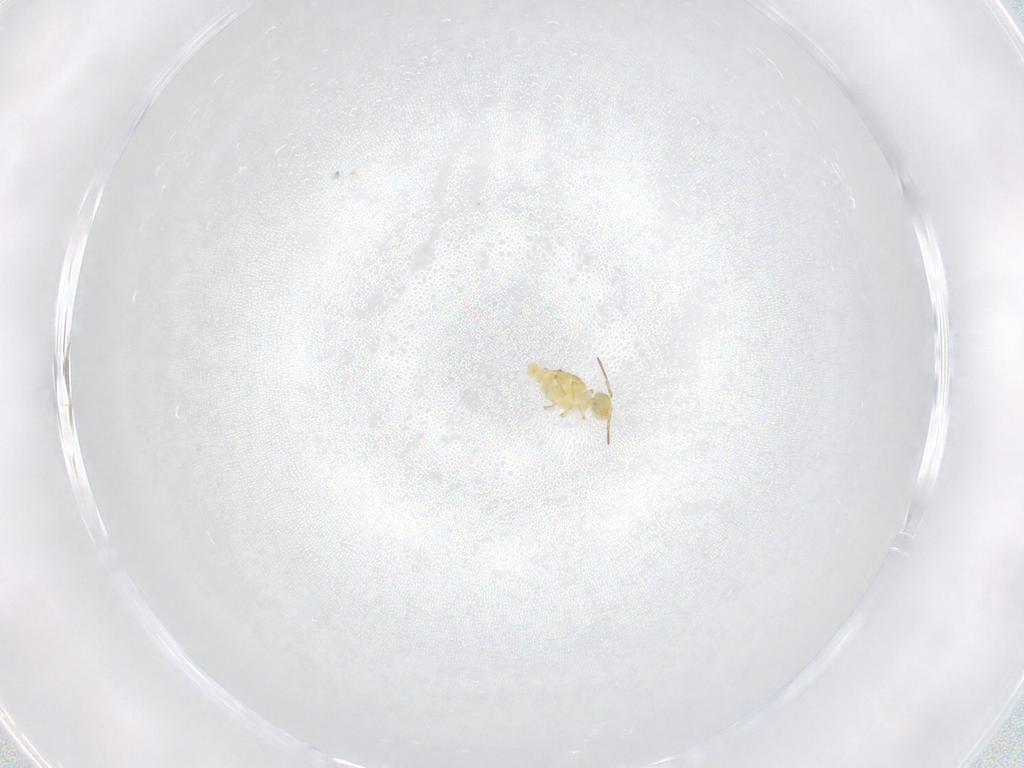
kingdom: Animalia
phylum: Arthropoda
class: Collembola
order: Symphypleona
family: Bourletiellidae
